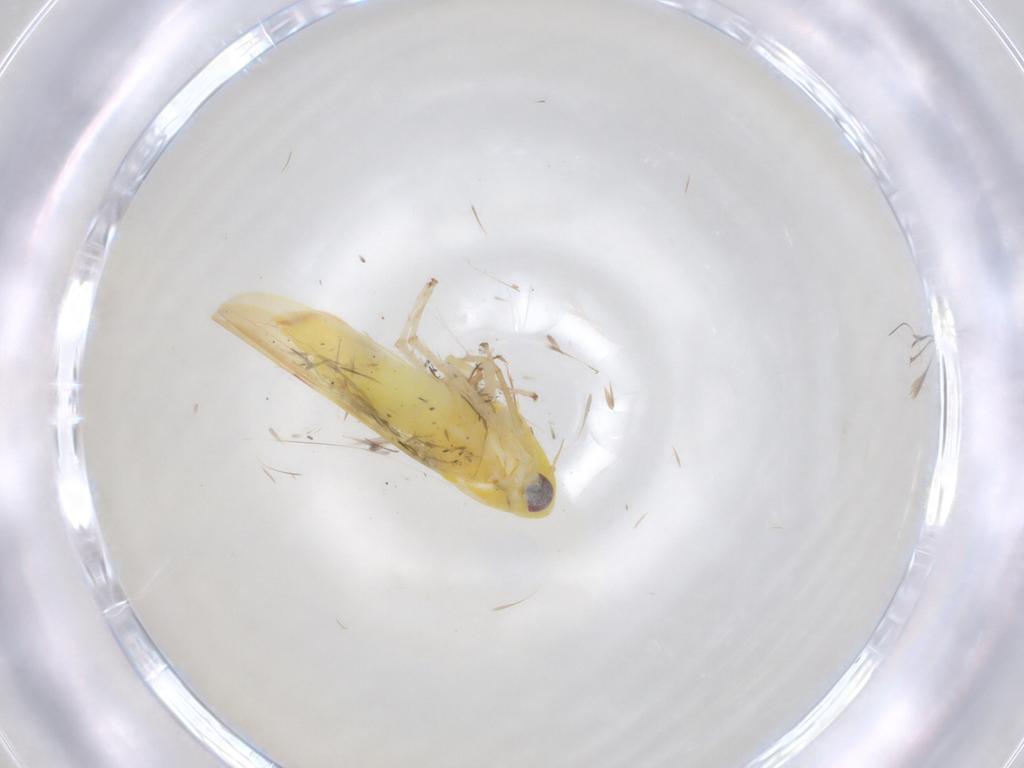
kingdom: Animalia
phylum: Arthropoda
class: Insecta
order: Hemiptera
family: Cicadellidae
